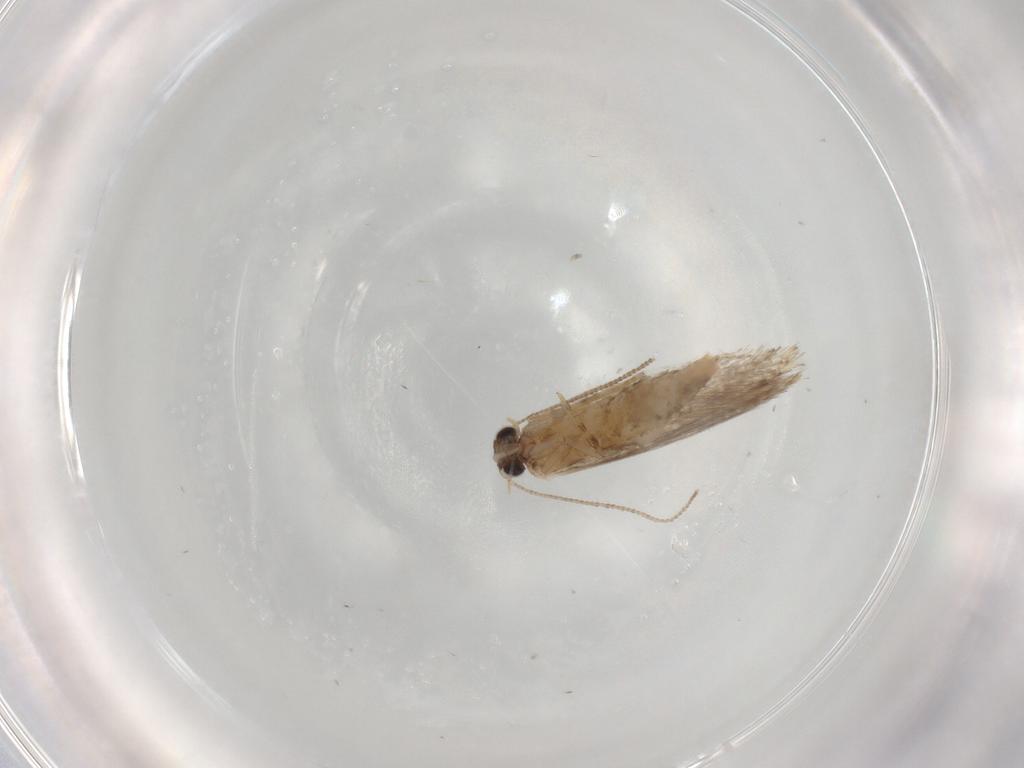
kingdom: Animalia
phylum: Arthropoda
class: Insecta
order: Lepidoptera
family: Tineidae
